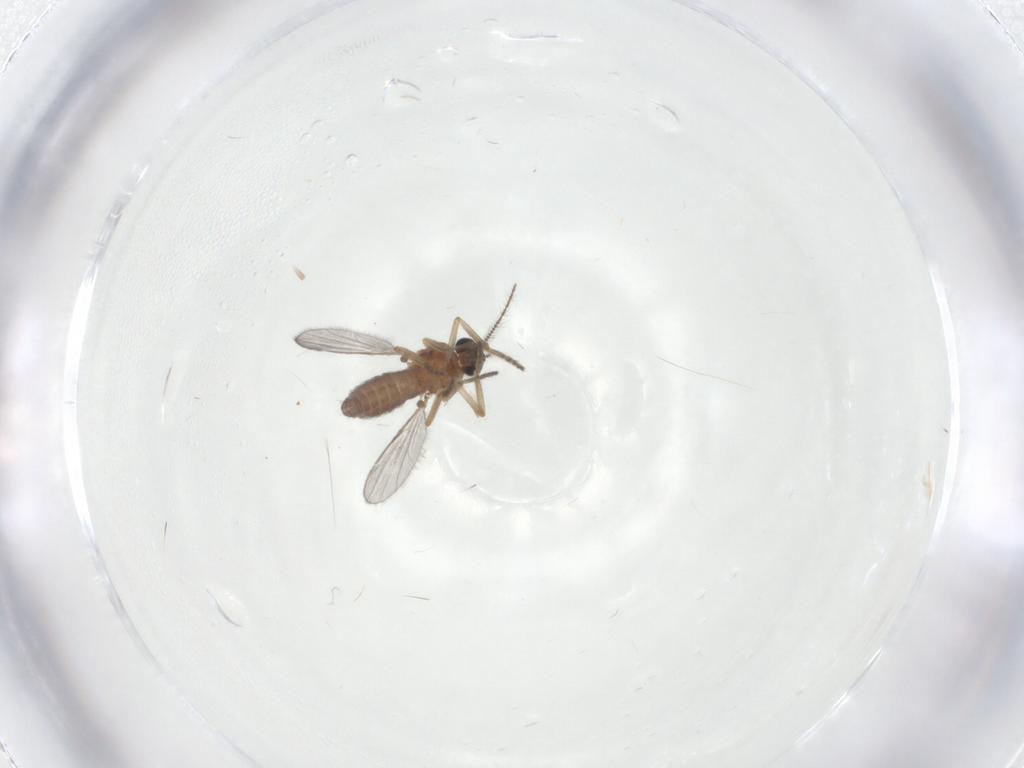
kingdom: Animalia
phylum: Arthropoda
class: Insecta
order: Diptera
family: Ceratopogonidae
